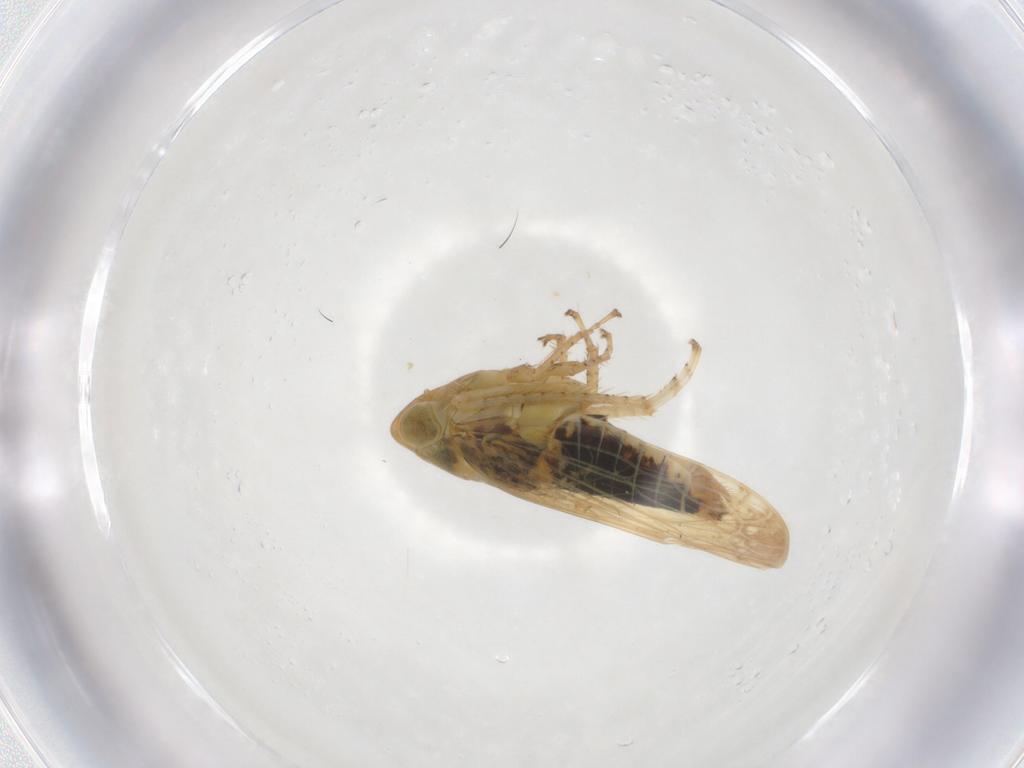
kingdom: Animalia
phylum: Arthropoda
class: Insecta
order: Hemiptera
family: Cicadellidae
